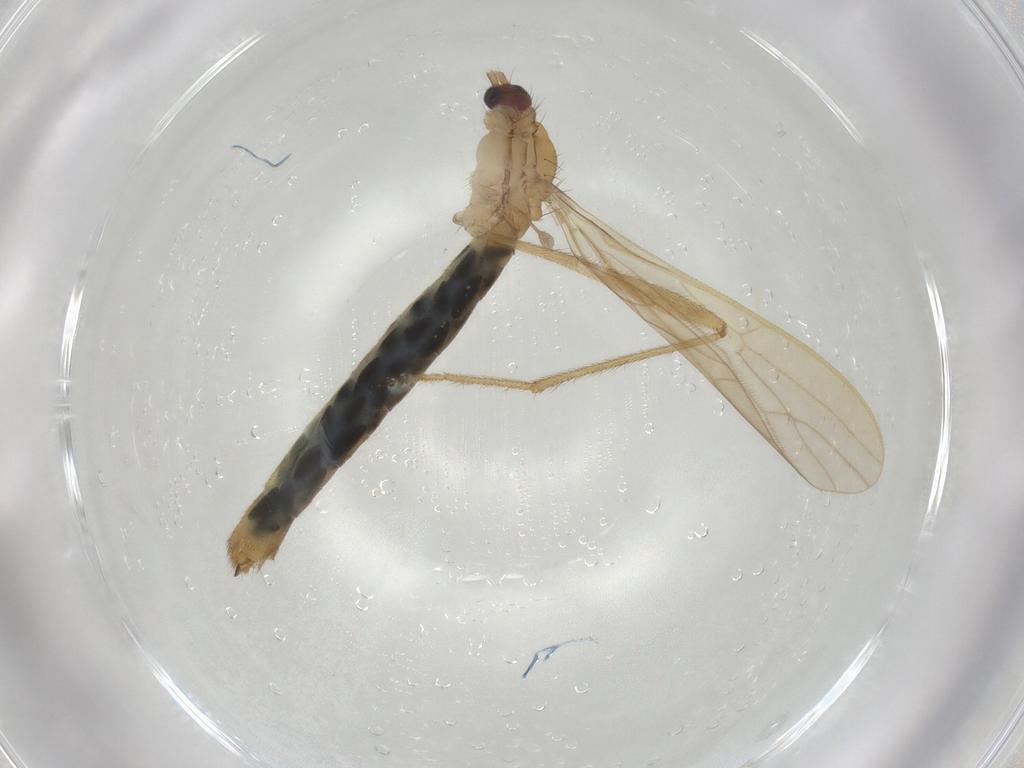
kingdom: Animalia
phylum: Arthropoda
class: Insecta
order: Diptera
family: Limoniidae
